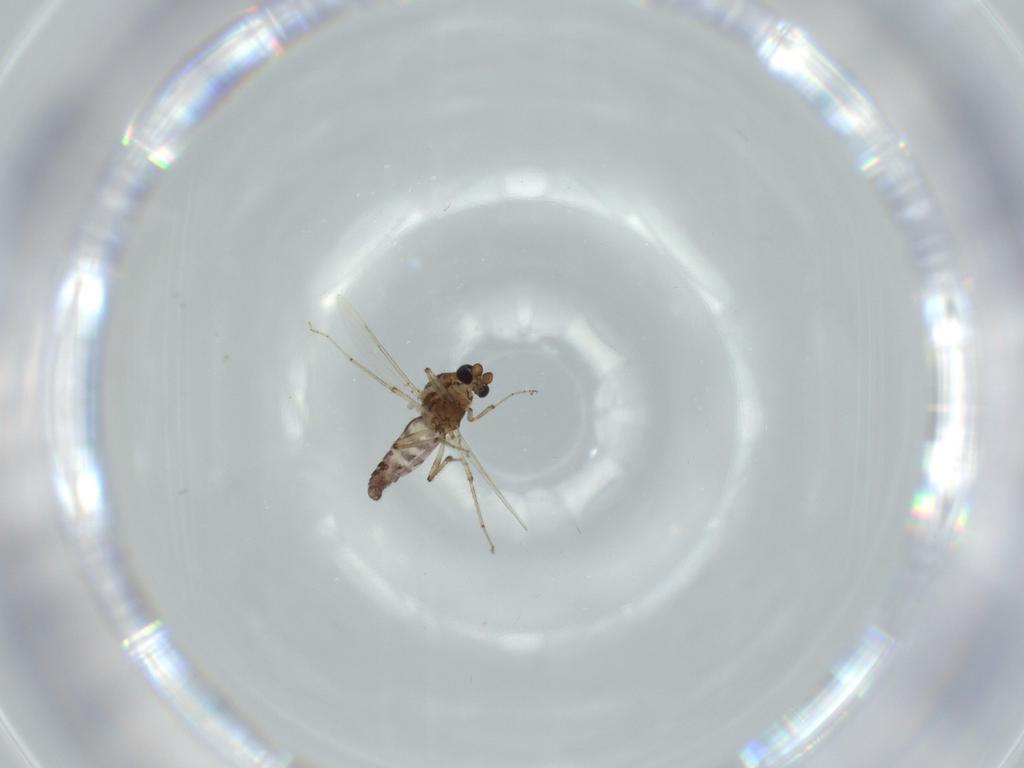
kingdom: Animalia
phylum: Arthropoda
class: Insecta
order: Diptera
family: Ceratopogonidae
